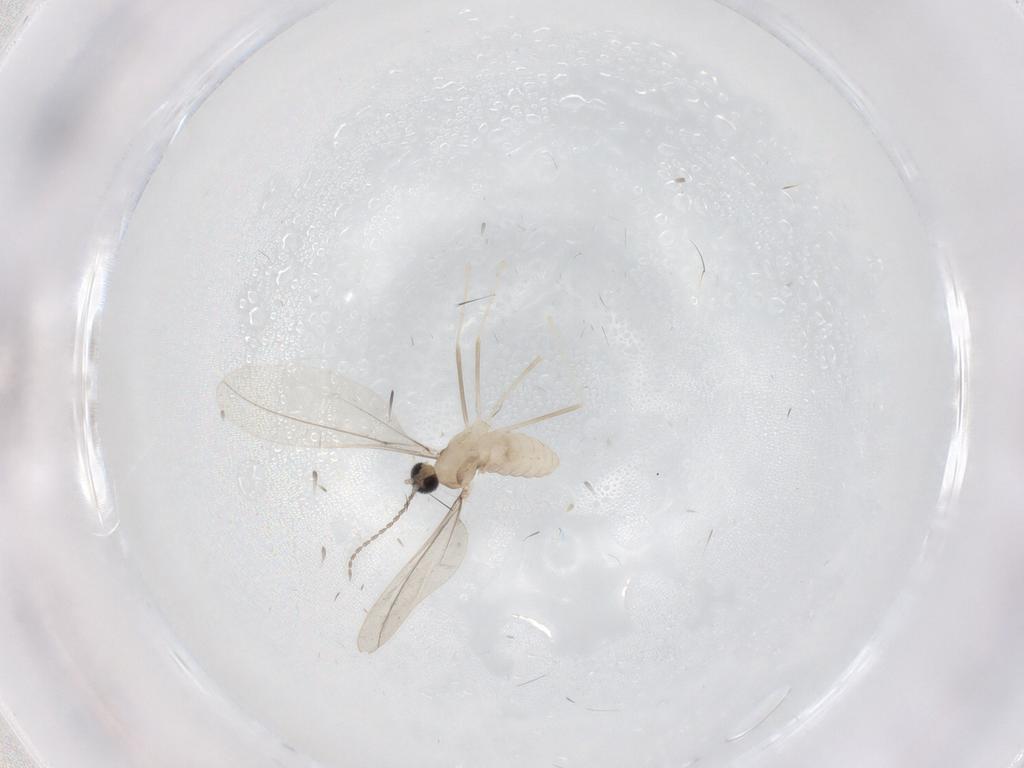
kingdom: Animalia
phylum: Arthropoda
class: Insecta
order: Diptera
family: Cecidomyiidae
